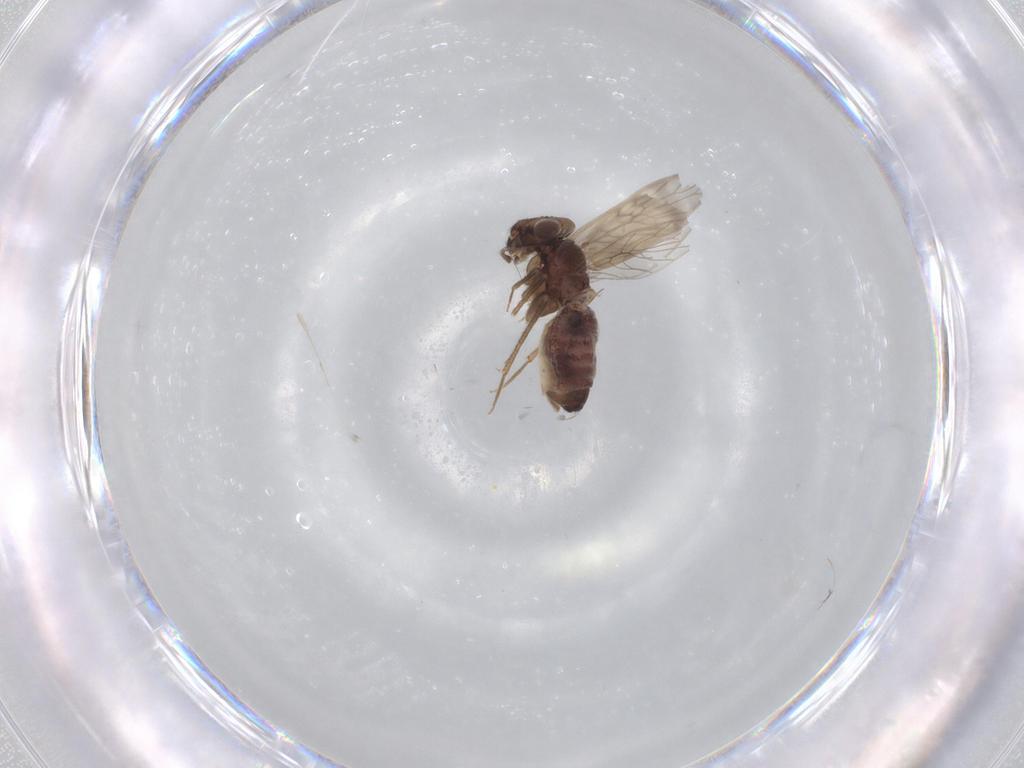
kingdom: Animalia
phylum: Arthropoda
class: Insecta
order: Psocodea
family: Lepidopsocidae
